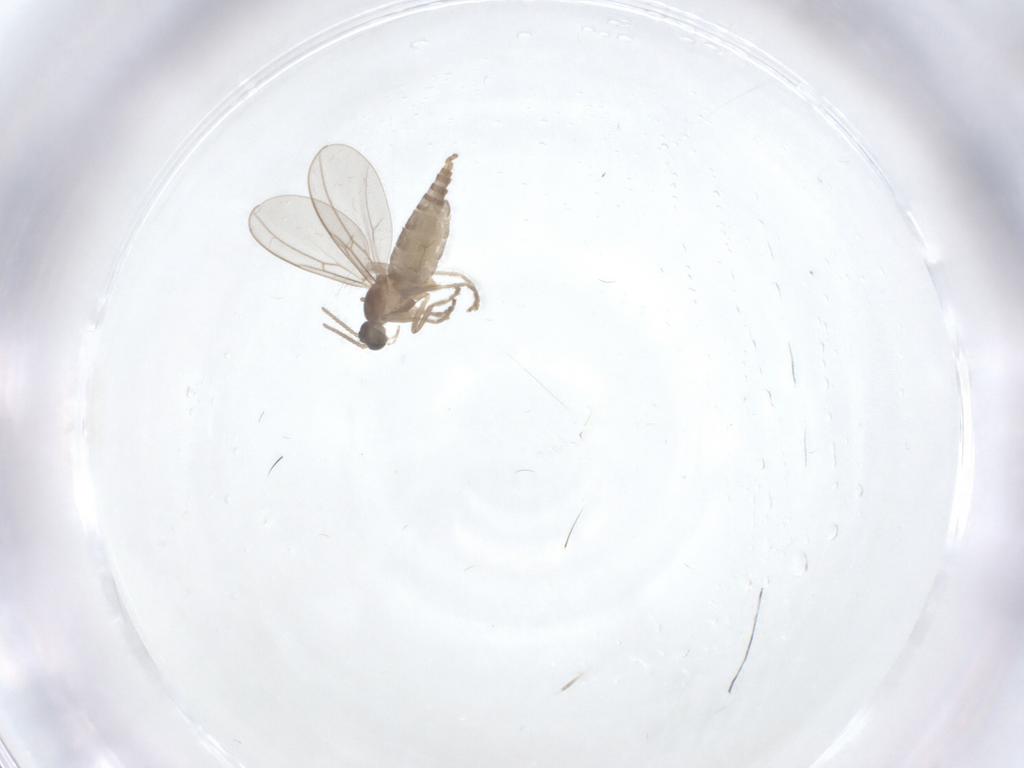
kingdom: Animalia
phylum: Arthropoda
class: Insecta
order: Diptera
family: Cecidomyiidae
